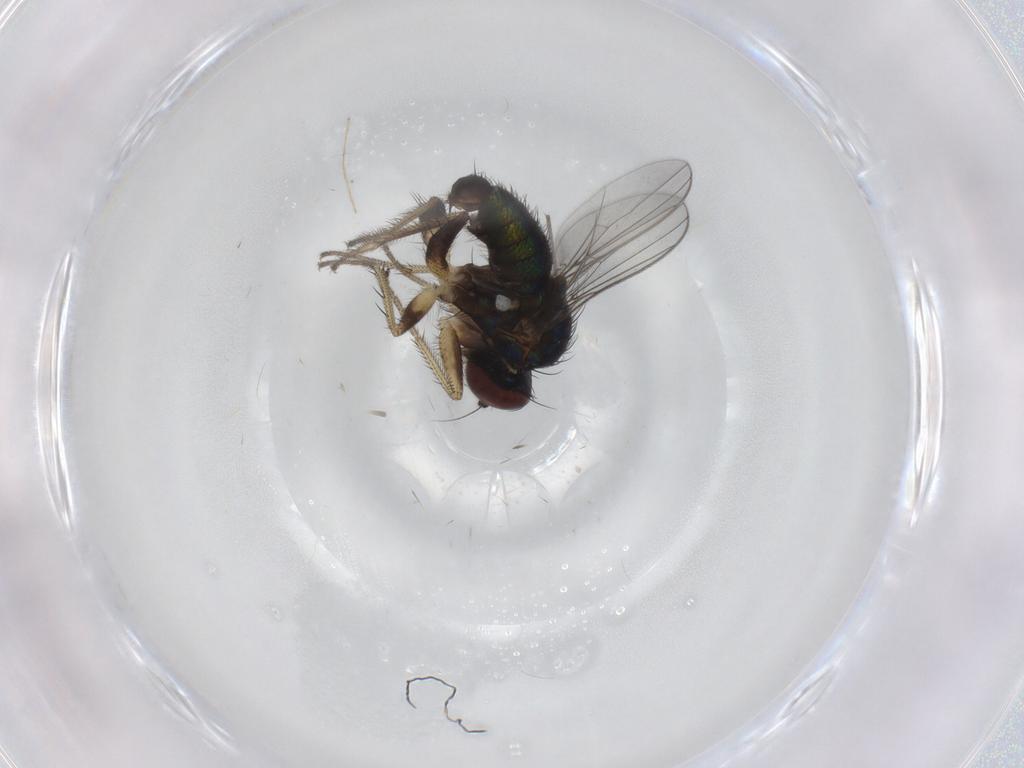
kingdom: Animalia
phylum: Arthropoda
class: Insecta
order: Diptera
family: Dolichopodidae
